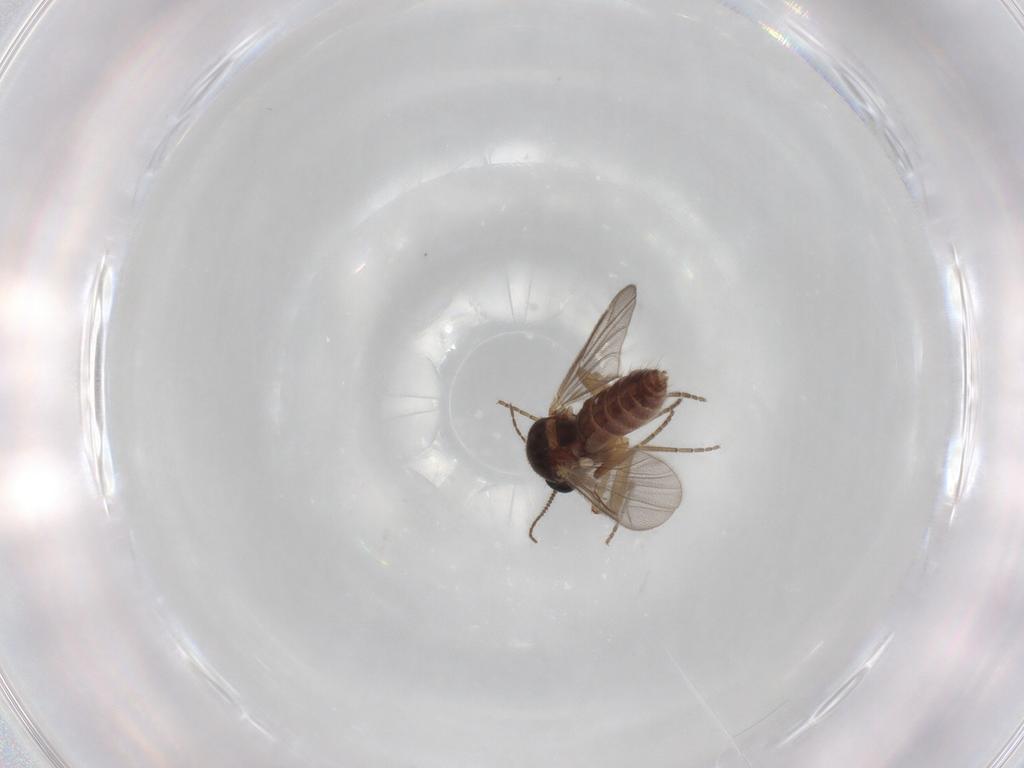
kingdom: Animalia
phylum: Arthropoda
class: Insecta
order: Diptera
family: Ceratopogonidae
